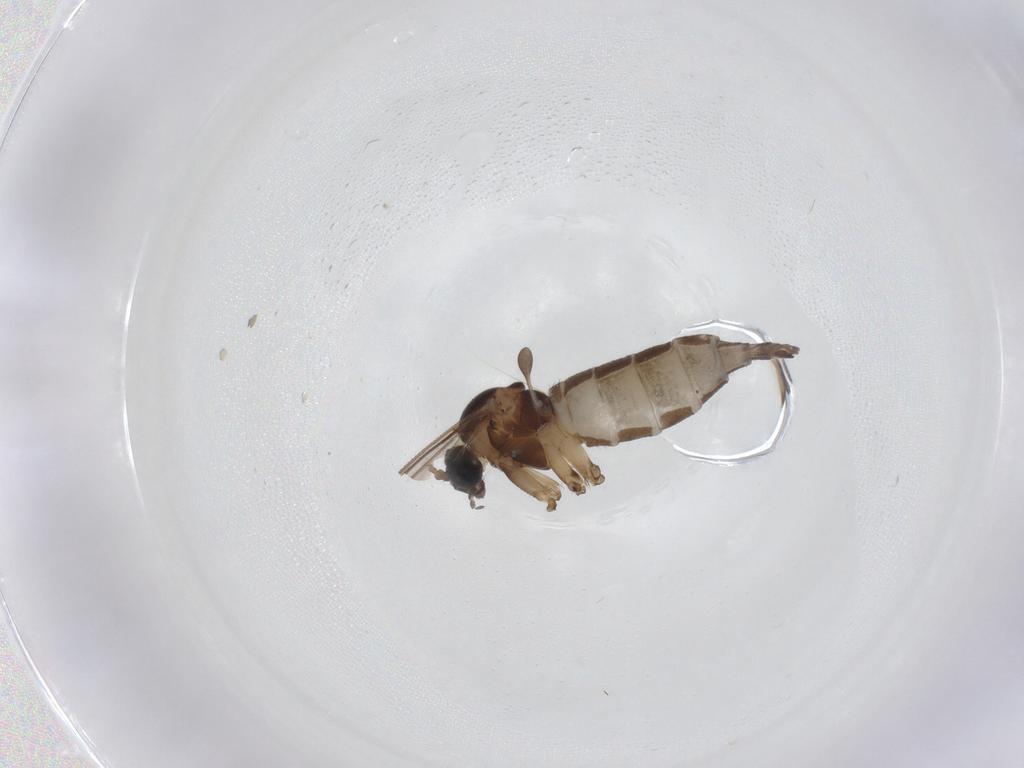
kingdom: Animalia
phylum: Arthropoda
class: Insecta
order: Diptera
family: Sciaridae
